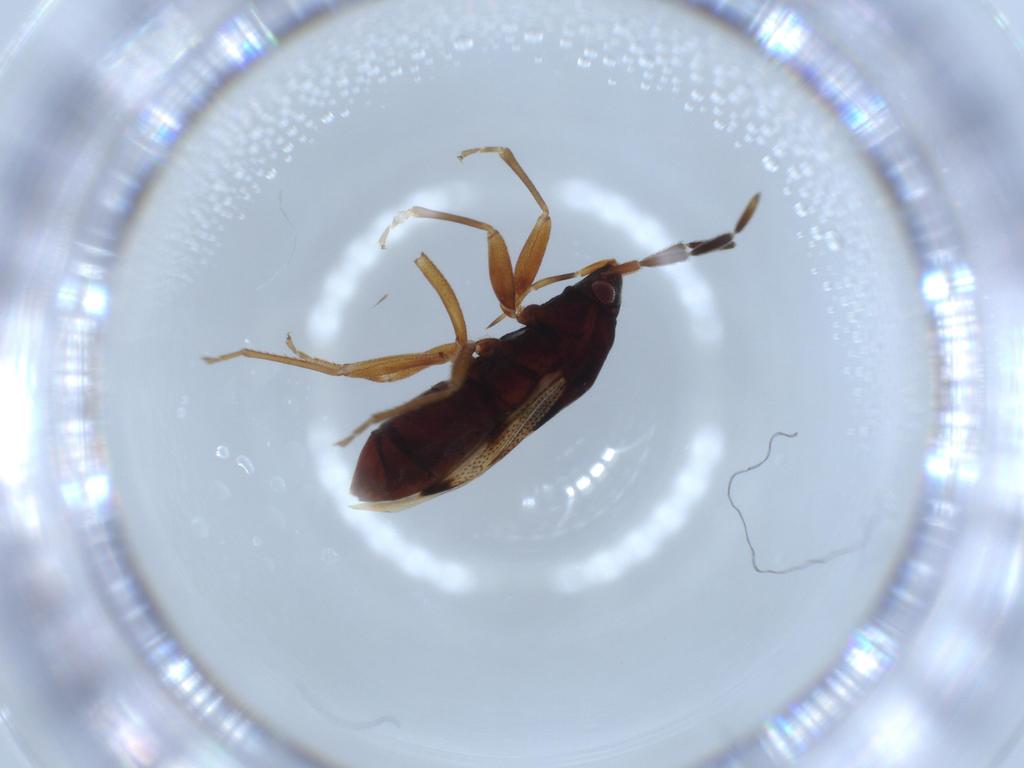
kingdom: Animalia
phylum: Arthropoda
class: Insecta
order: Hemiptera
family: Rhyparochromidae
